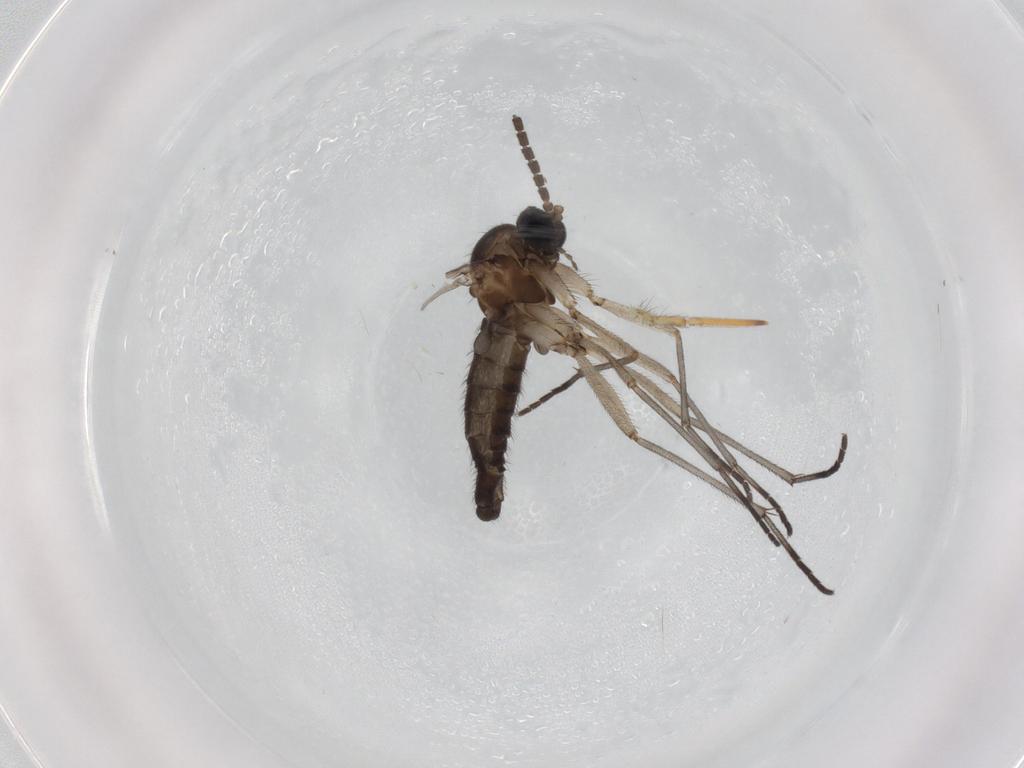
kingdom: Animalia
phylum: Arthropoda
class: Insecta
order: Diptera
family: Sciaridae
